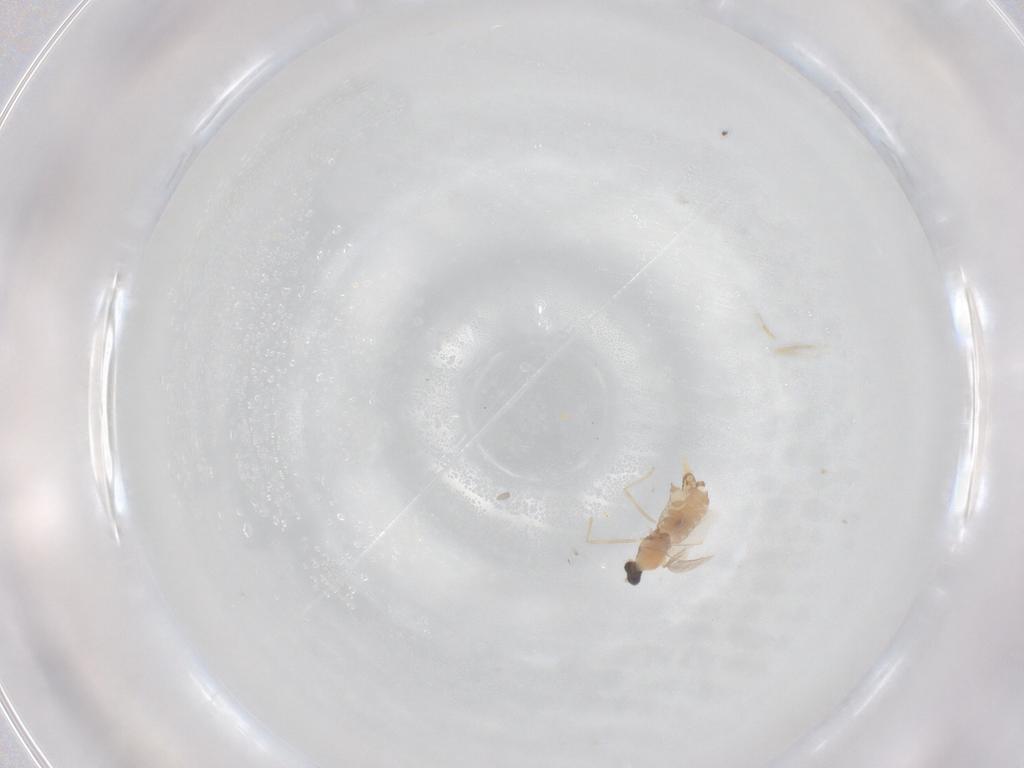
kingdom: Animalia
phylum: Arthropoda
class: Insecta
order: Diptera
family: Cecidomyiidae
